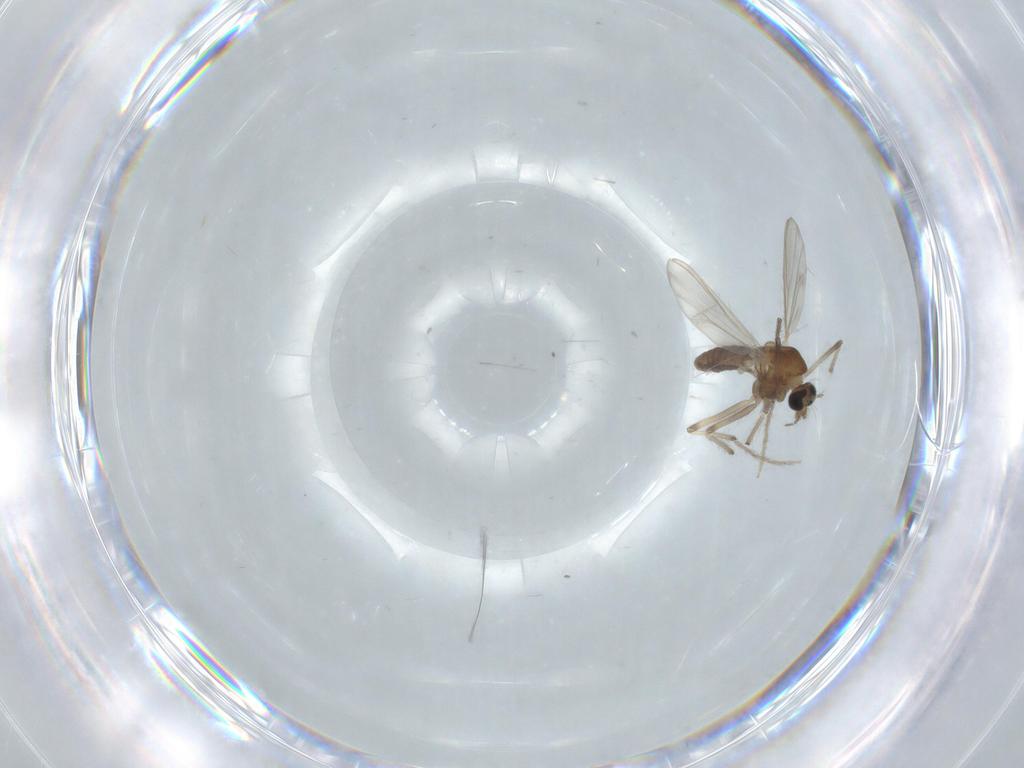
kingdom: Animalia
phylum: Arthropoda
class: Insecta
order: Diptera
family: Chironomidae
